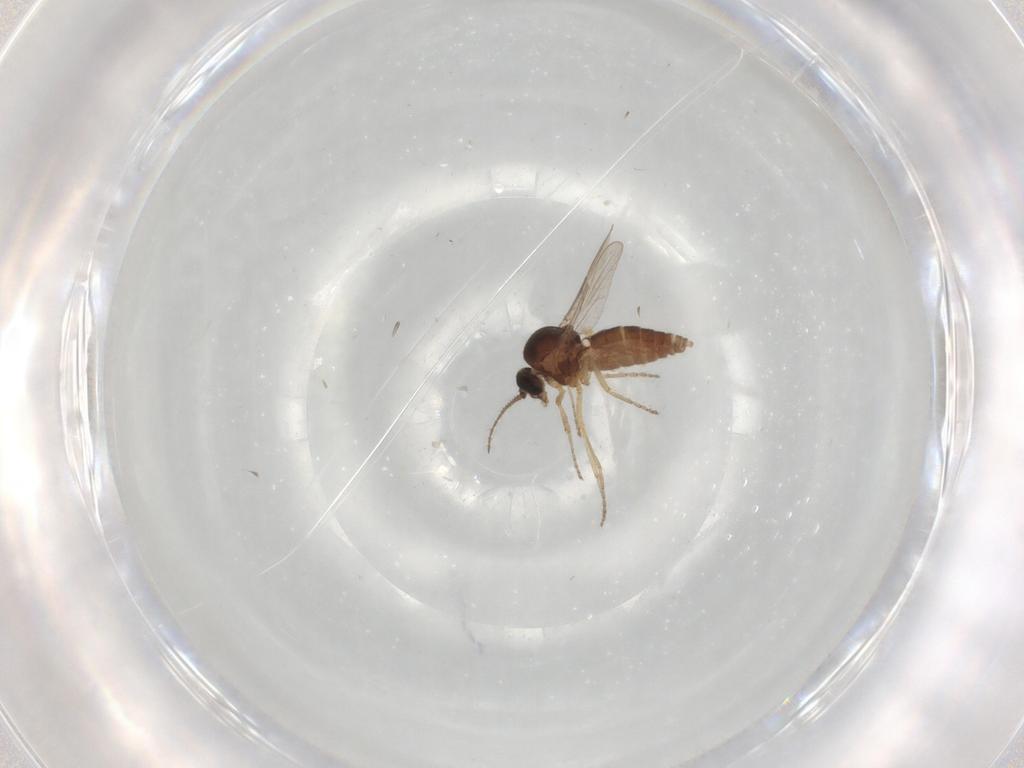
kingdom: Animalia
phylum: Arthropoda
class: Insecta
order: Diptera
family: Ceratopogonidae
